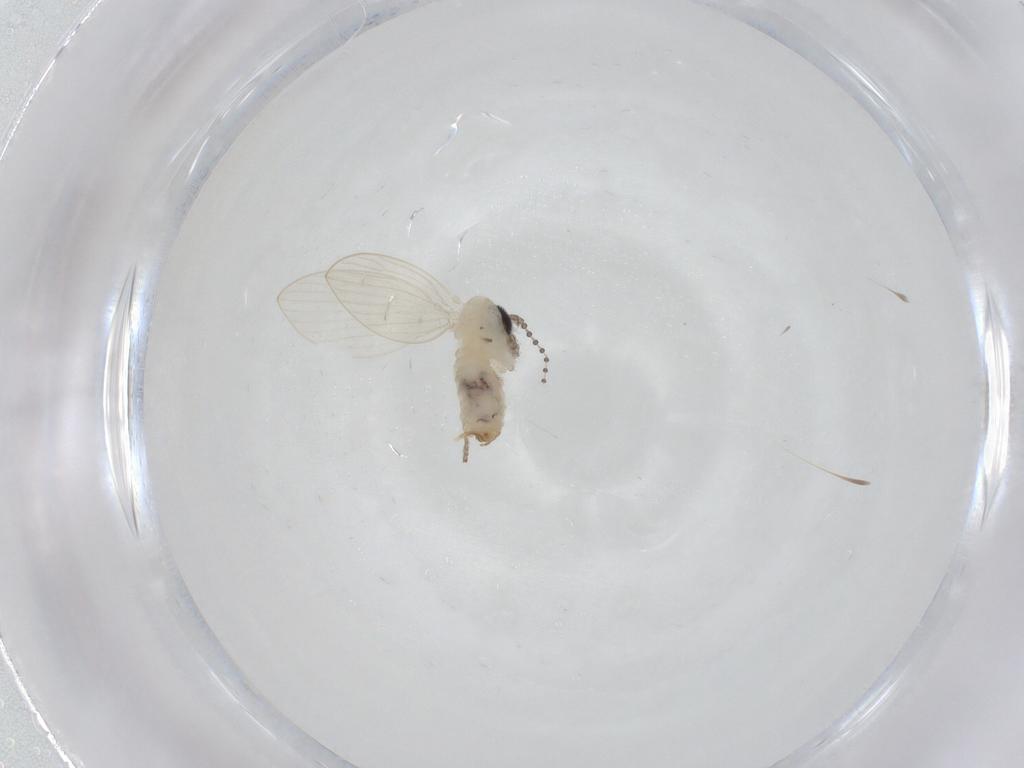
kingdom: Animalia
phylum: Arthropoda
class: Insecta
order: Diptera
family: Psychodidae
